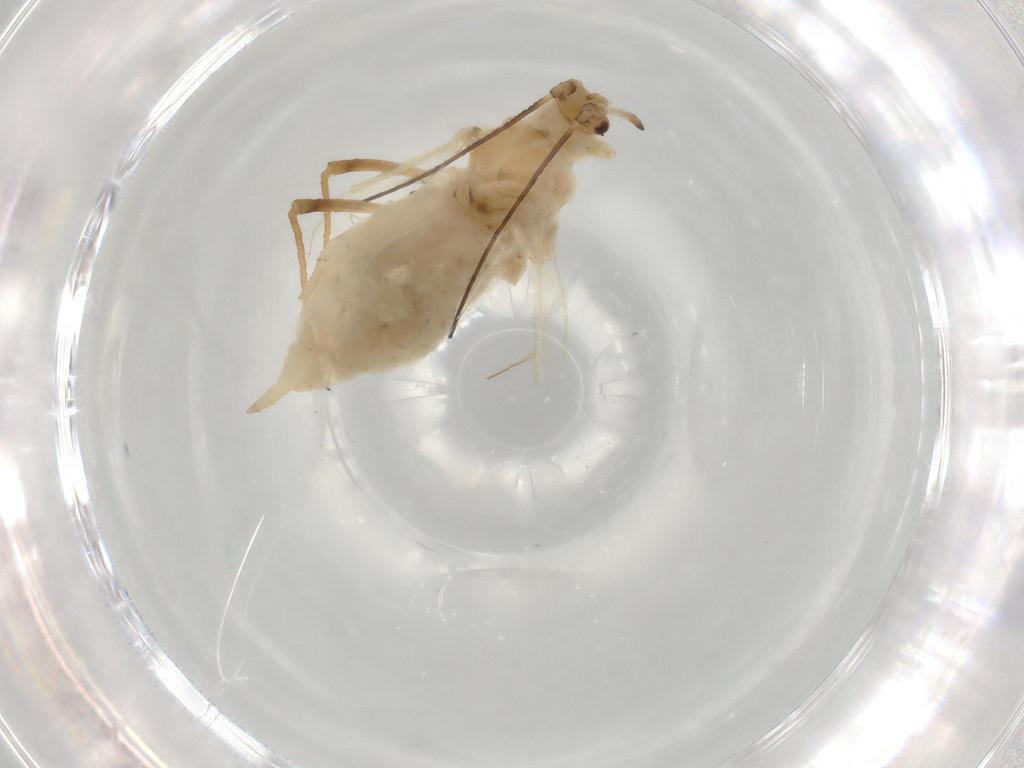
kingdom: Animalia
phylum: Arthropoda
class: Insecta
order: Hemiptera
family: Aphididae
